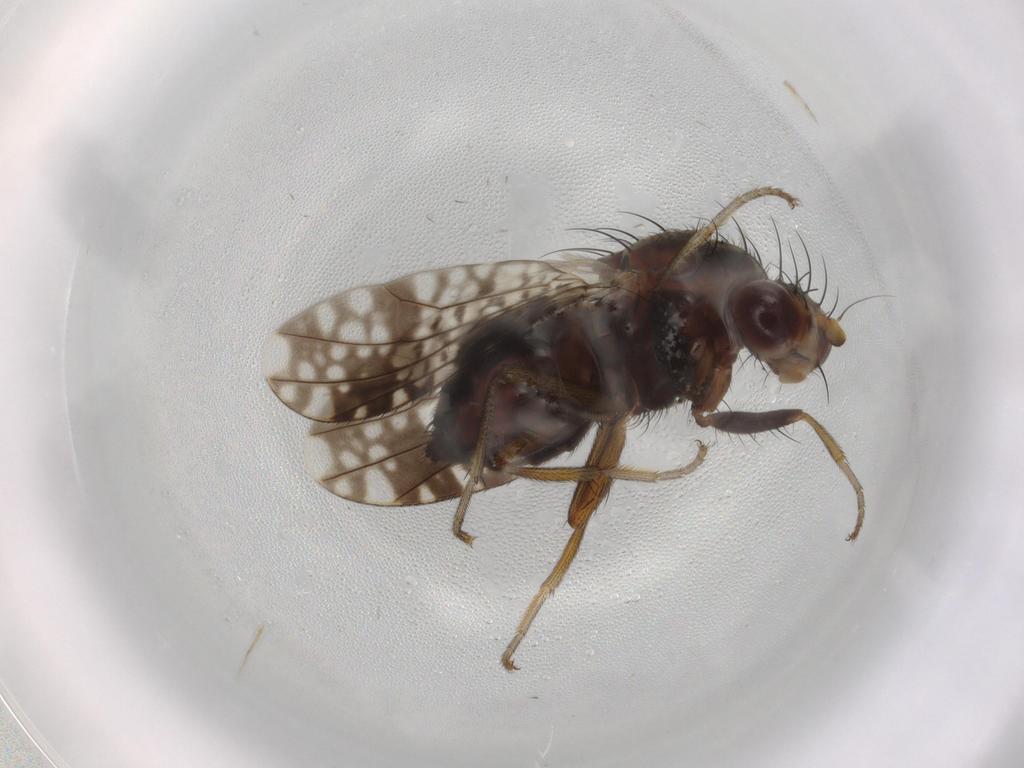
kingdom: Animalia
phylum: Arthropoda
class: Insecta
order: Diptera
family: Tephritidae
